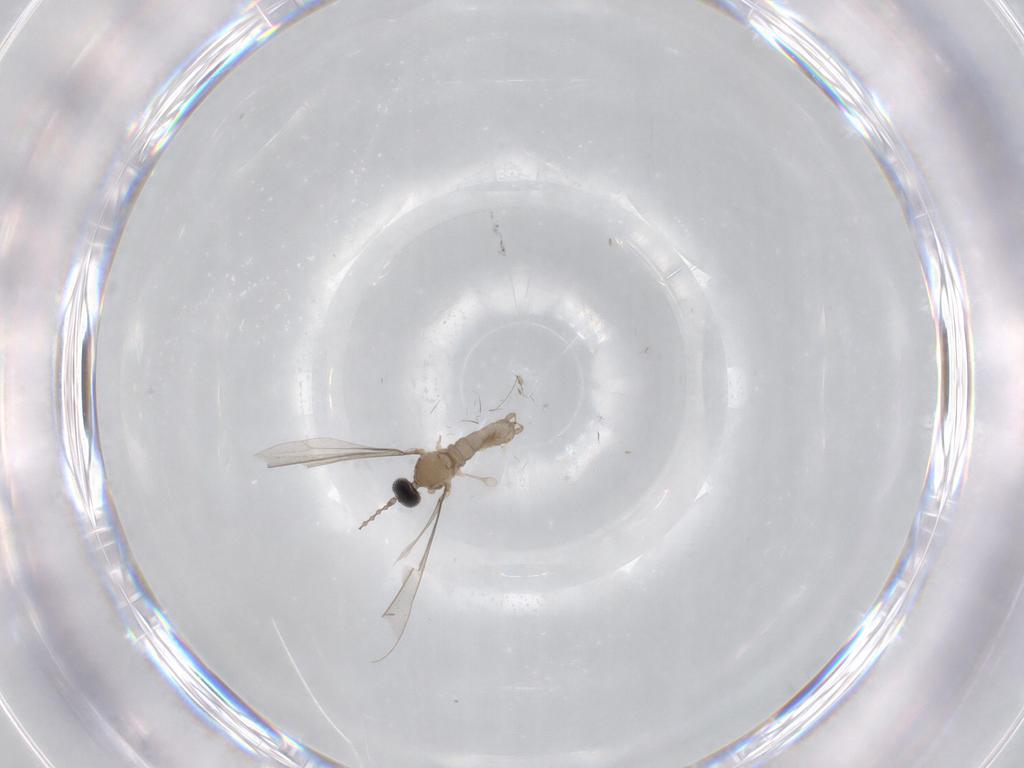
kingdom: Animalia
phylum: Arthropoda
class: Insecta
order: Diptera
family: Cecidomyiidae
